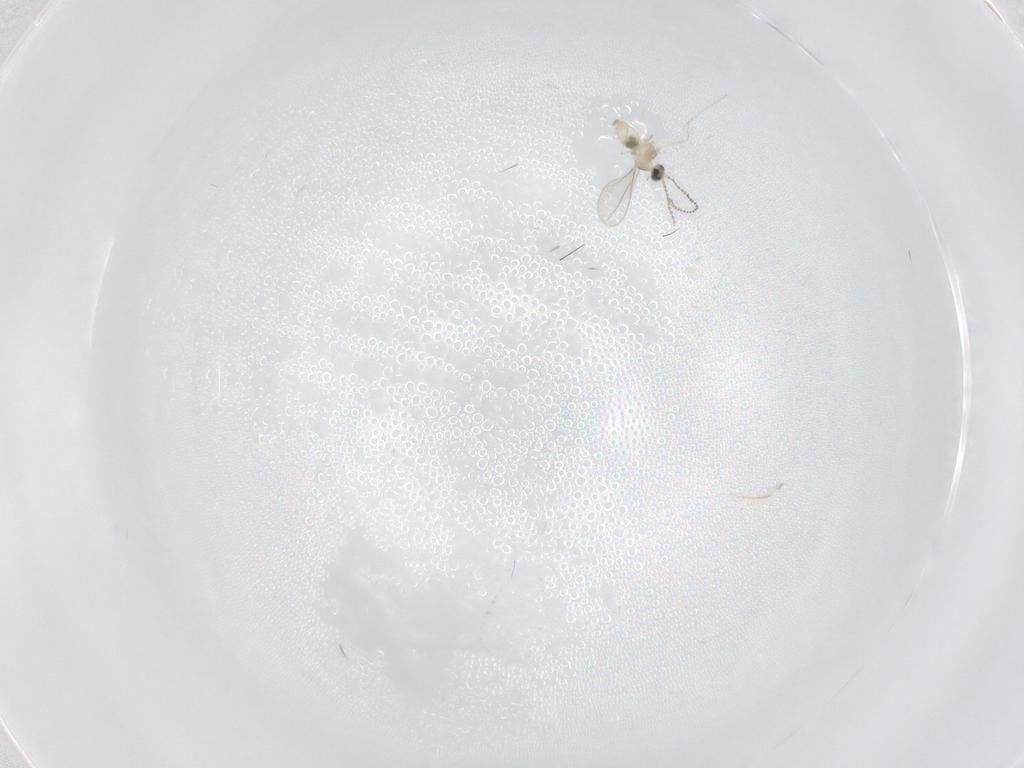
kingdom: Animalia
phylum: Arthropoda
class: Insecta
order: Diptera
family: Cecidomyiidae
